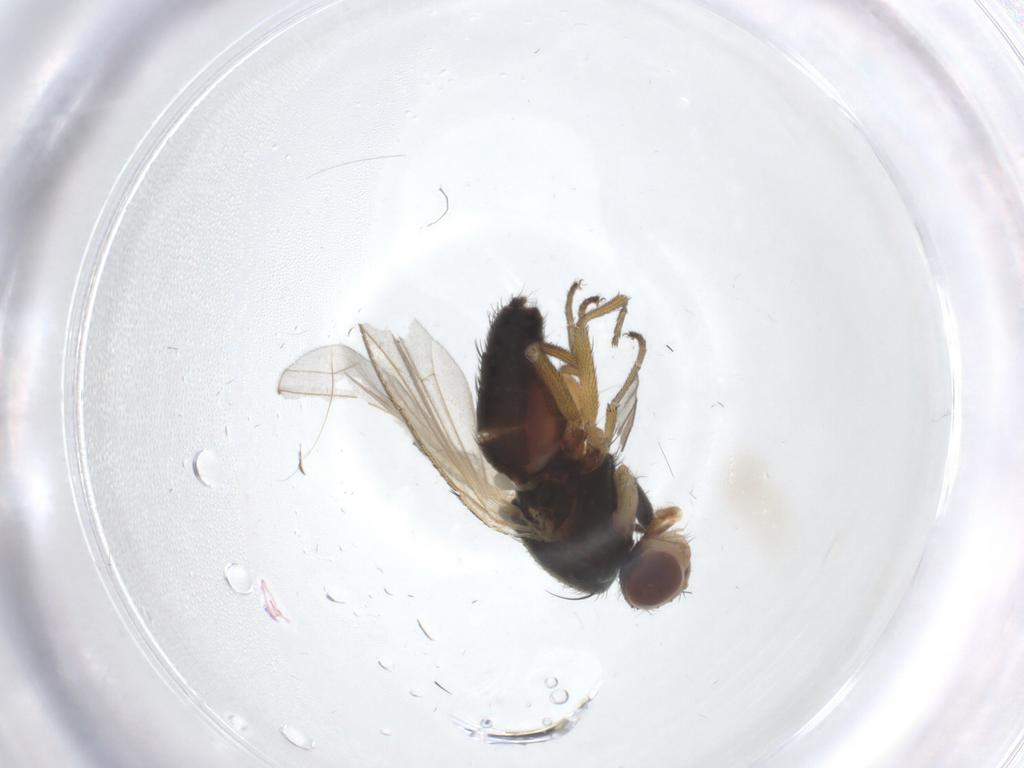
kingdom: Animalia
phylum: Arthropoda
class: Insecta
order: Diptera
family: Heleomyzidae
